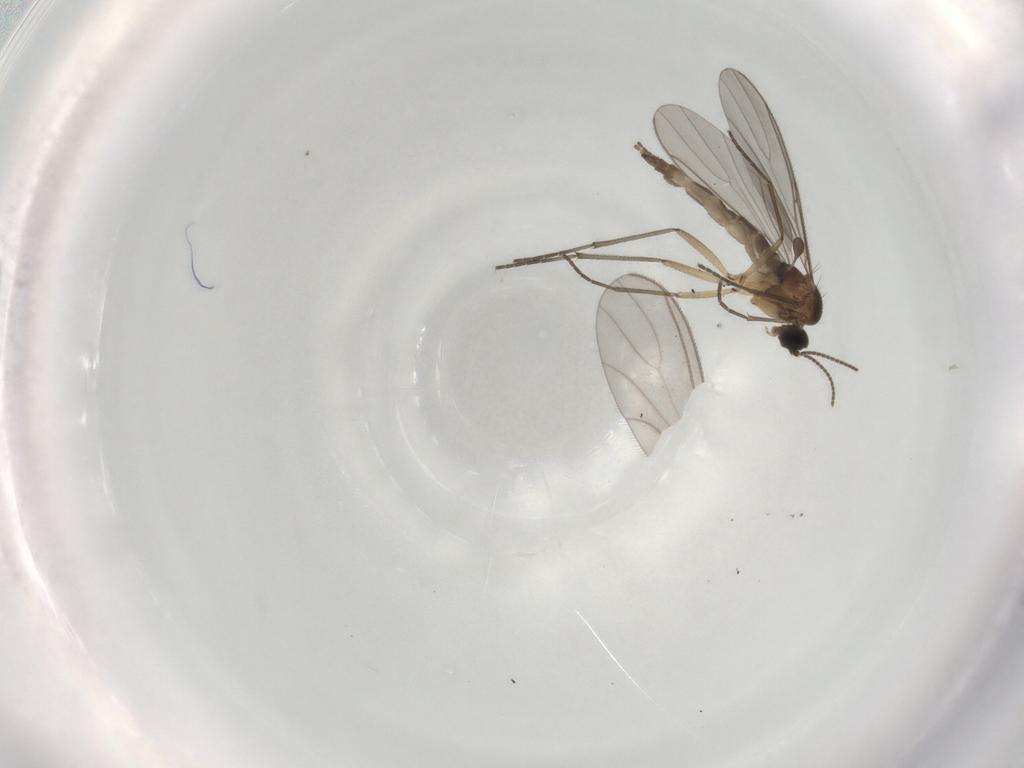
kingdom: Animalia
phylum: Arthropoda
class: Insecta
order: Diptera
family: Sciaridae
